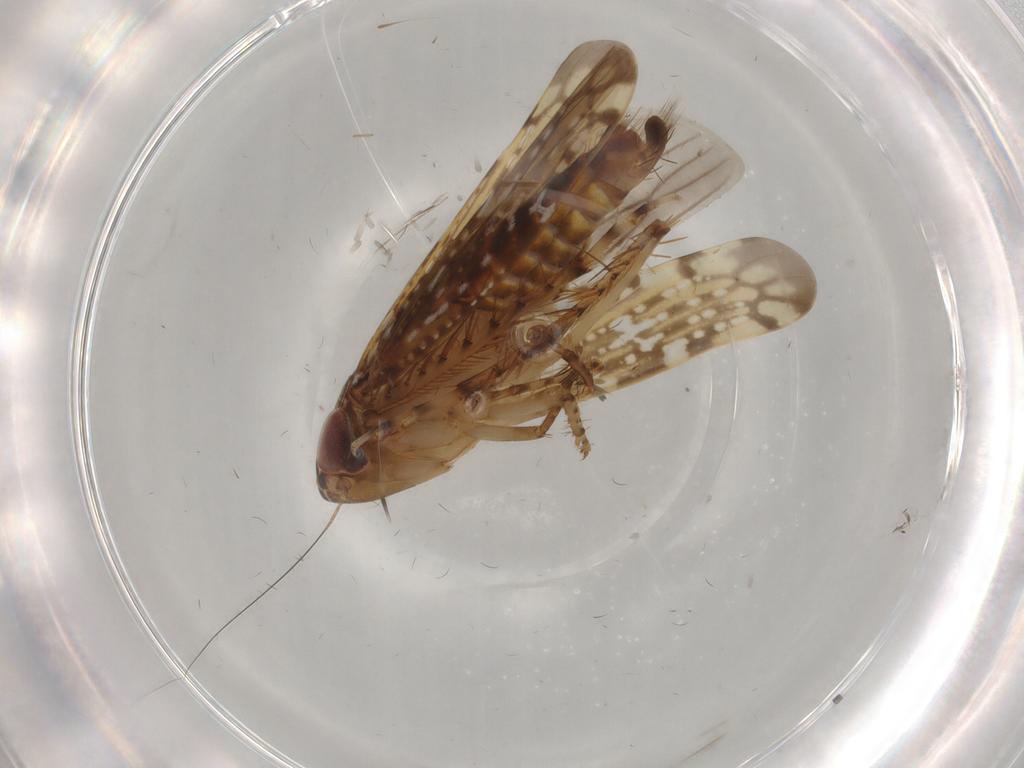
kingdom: Animalia
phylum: Arthropoda
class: Insecta
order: Hemiptera
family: Cicadellidae
